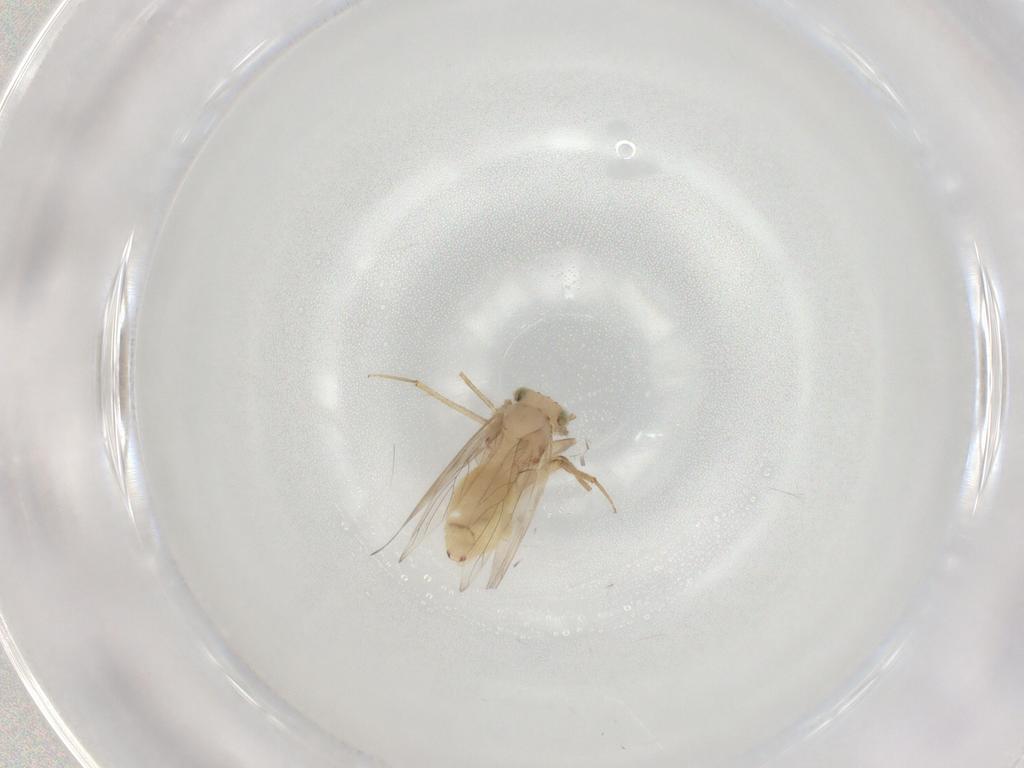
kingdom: Animalia
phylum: Arthropoda
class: Insecta
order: Psocodea
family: Lepidopsocidae
